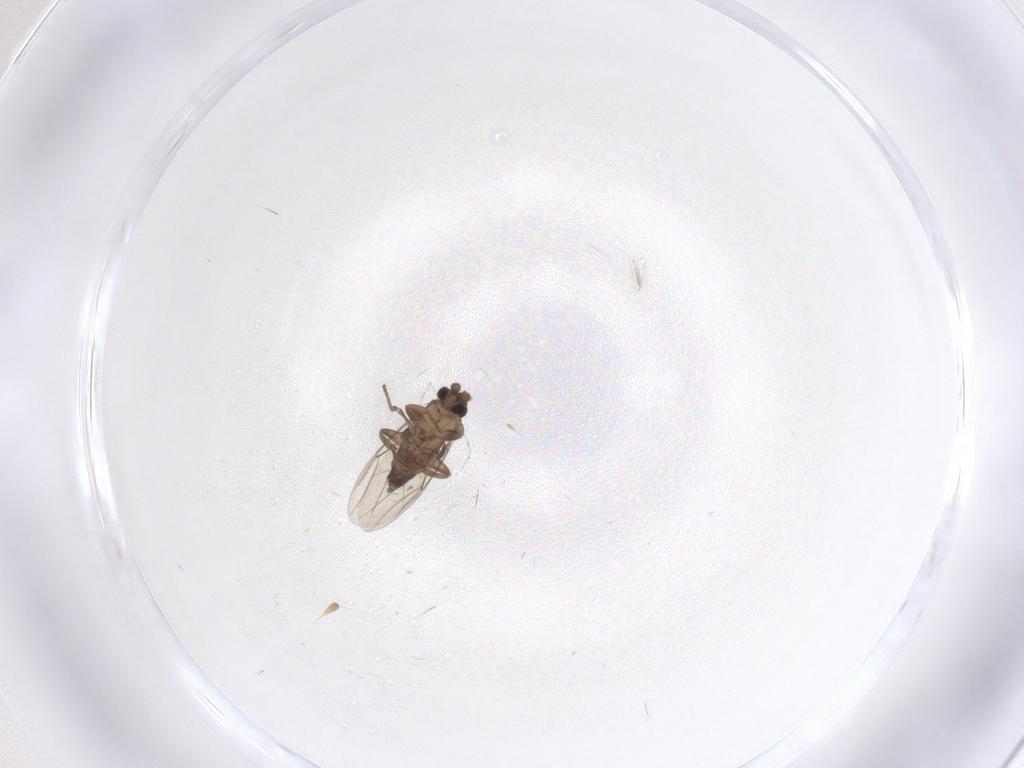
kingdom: Animalia
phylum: Arthropoda
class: Insecta
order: Diptera
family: Phoridae
